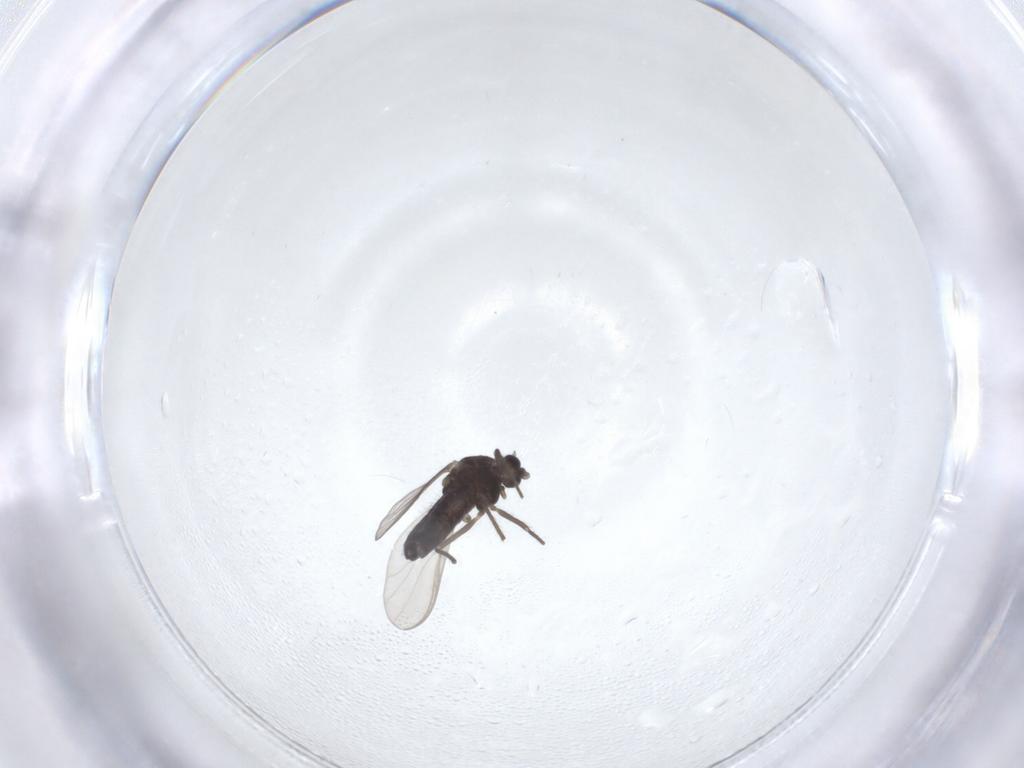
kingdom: Animalia
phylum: Arthropoda
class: Insecta
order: Diptera
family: Chironomidae
